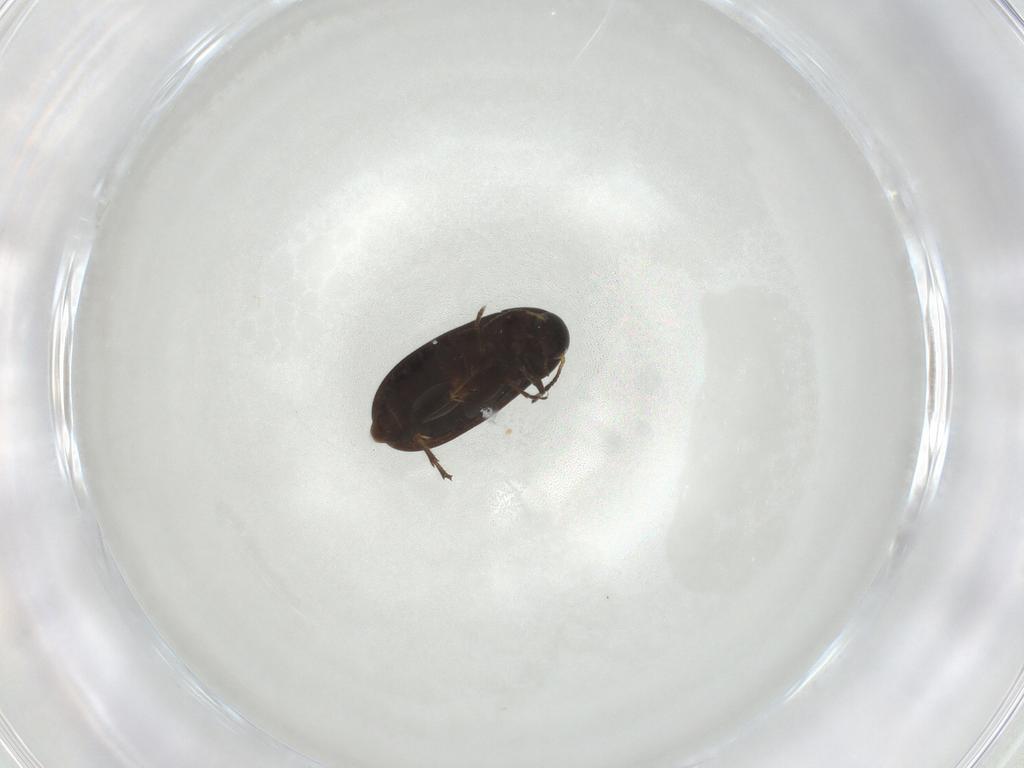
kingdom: Animalia
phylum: Arthropoda
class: Insecta
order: Coleoptera
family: Scraptiidae
